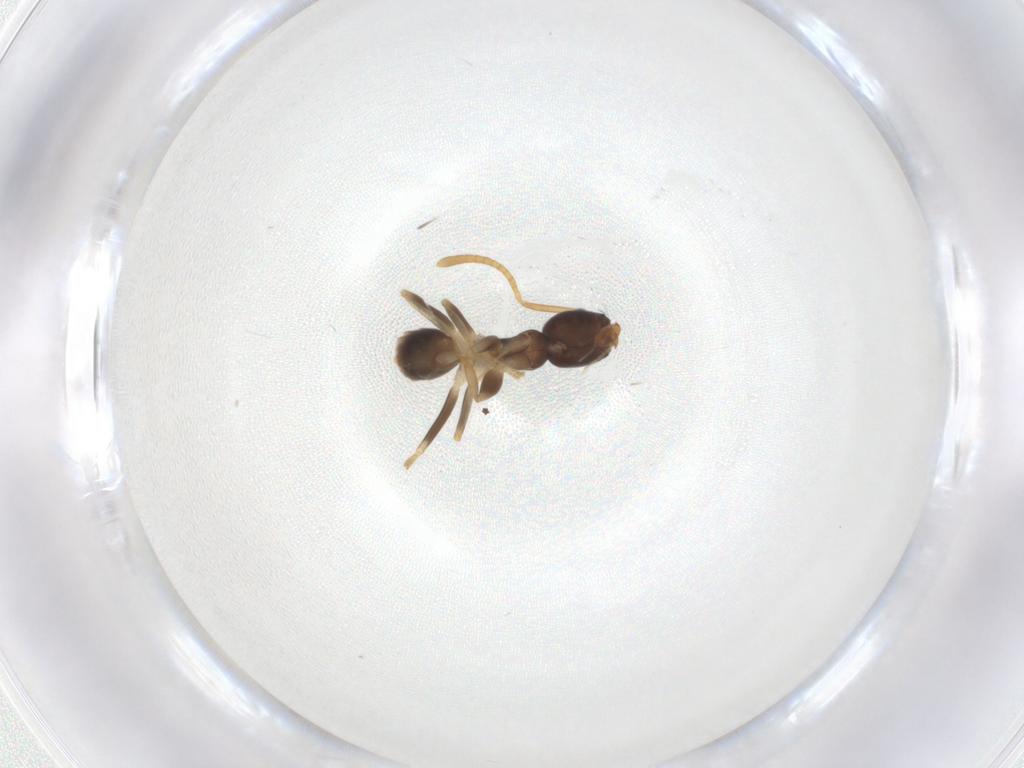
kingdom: Animalia
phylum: Arthropoda
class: Insecta
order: Hymenoptera
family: Formicidae
